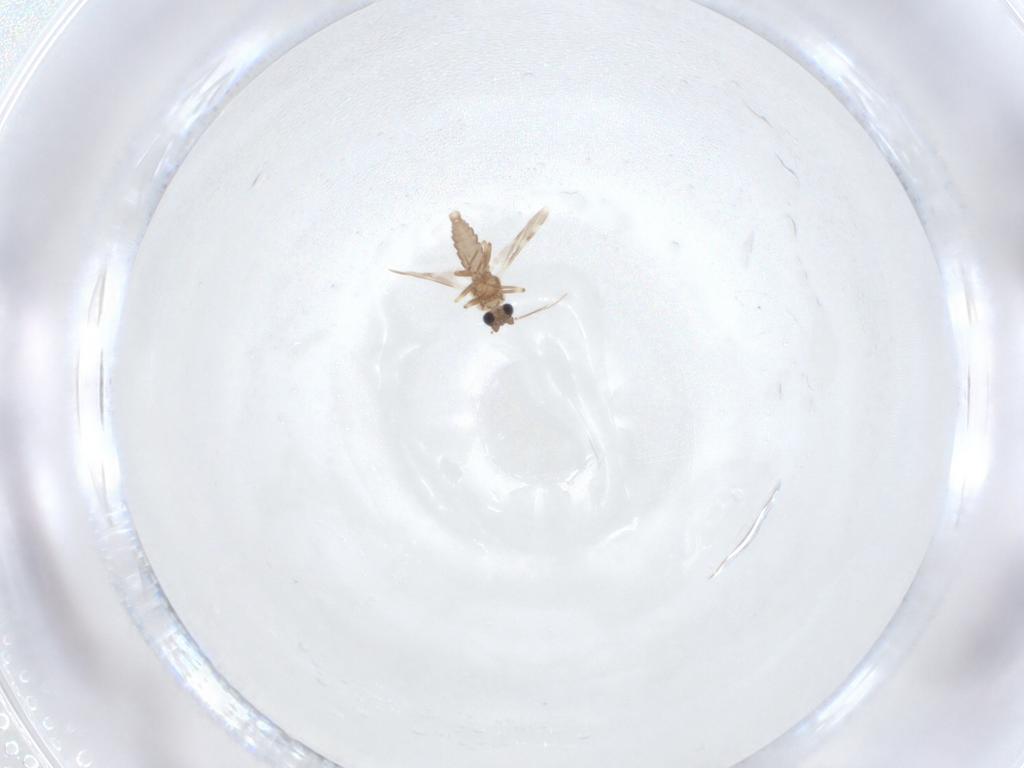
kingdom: Animalia
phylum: Arthropoda
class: Insecta
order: Diptera
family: Ceratopogonidae
